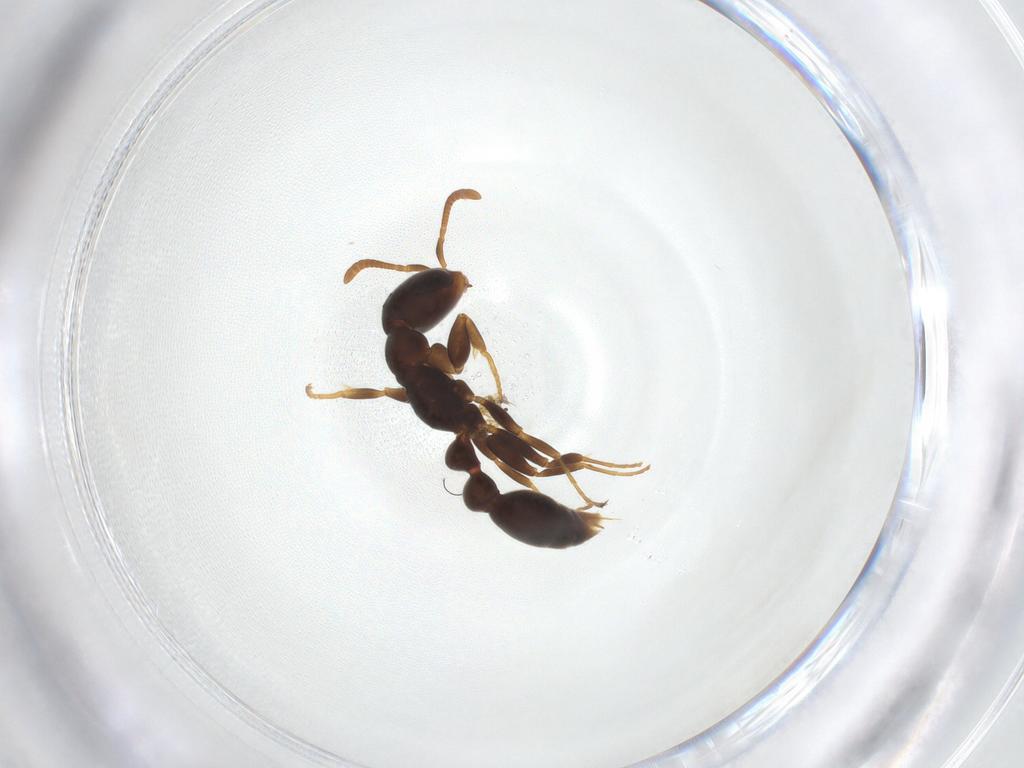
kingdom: Animalia
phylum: Arthropoda
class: Insecta
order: Hymenoptera
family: Formicidae
